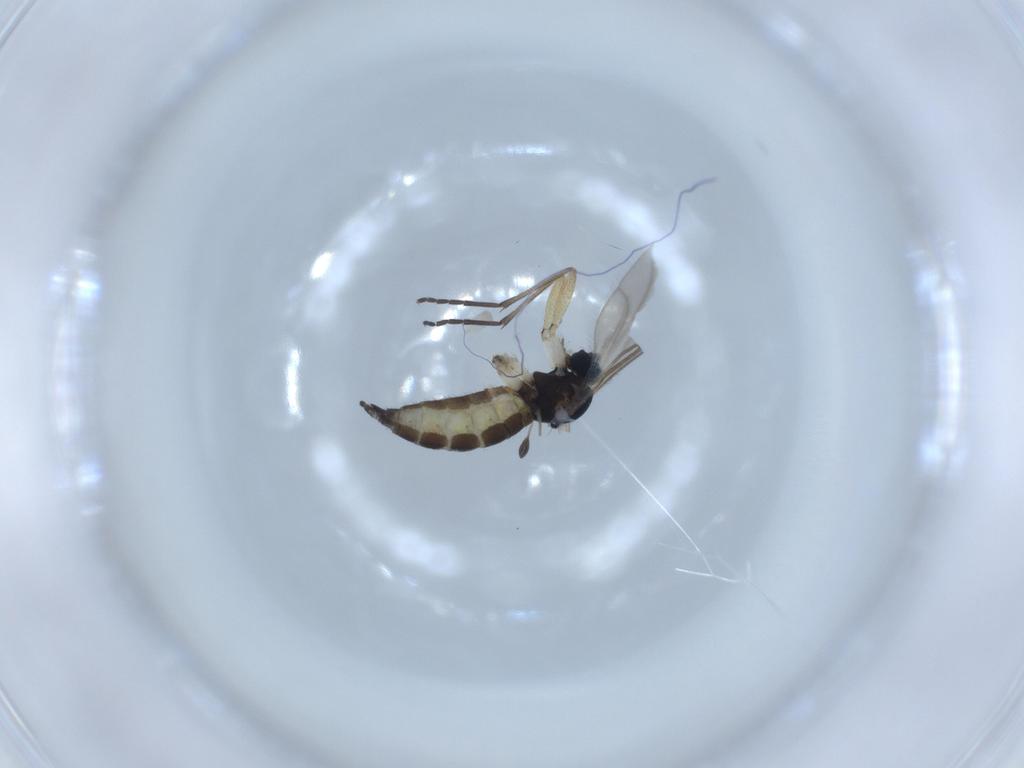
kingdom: Animalia
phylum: Arthropoda
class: Insecta
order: Diptera
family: Sciaridae
